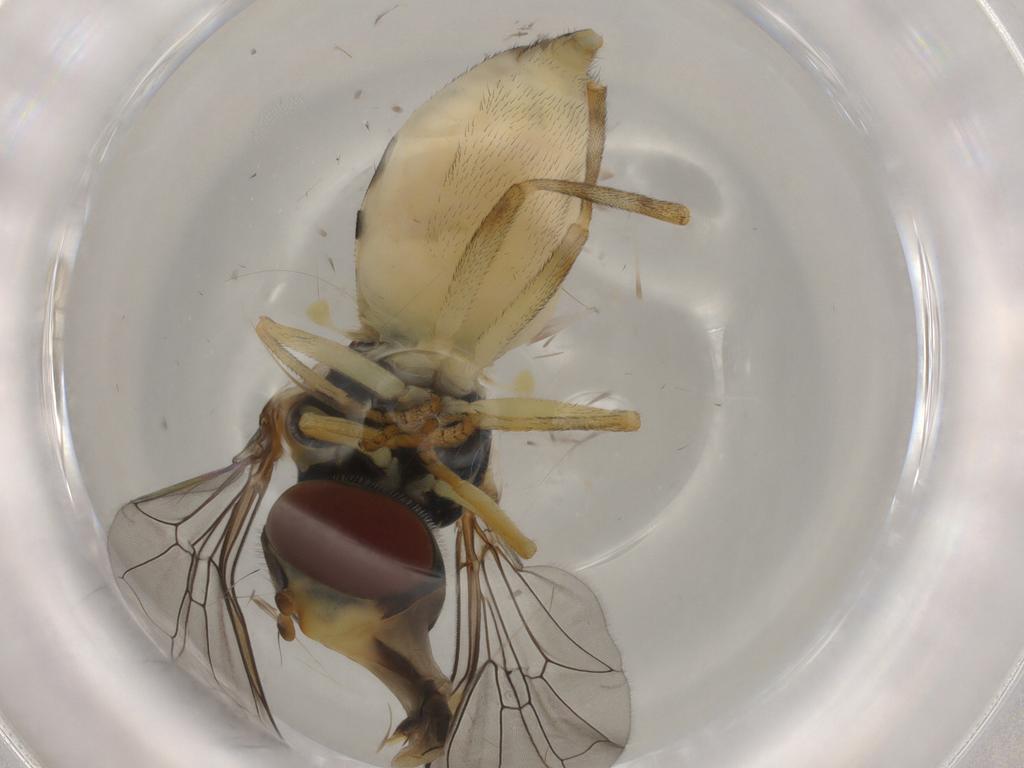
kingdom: Animalia
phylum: Arthropoda
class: Insecta
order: Diptera
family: Syrphidae
